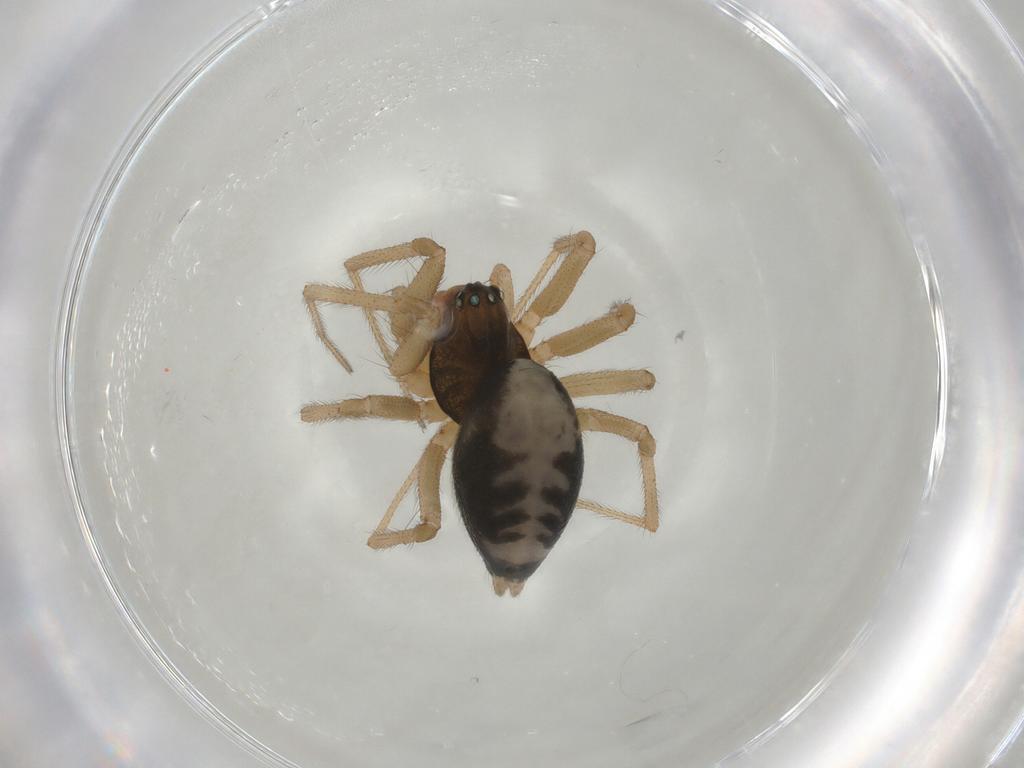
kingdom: Animalia
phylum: Arthropoda
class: Arachnida
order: Araneae
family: Linyphiidae
